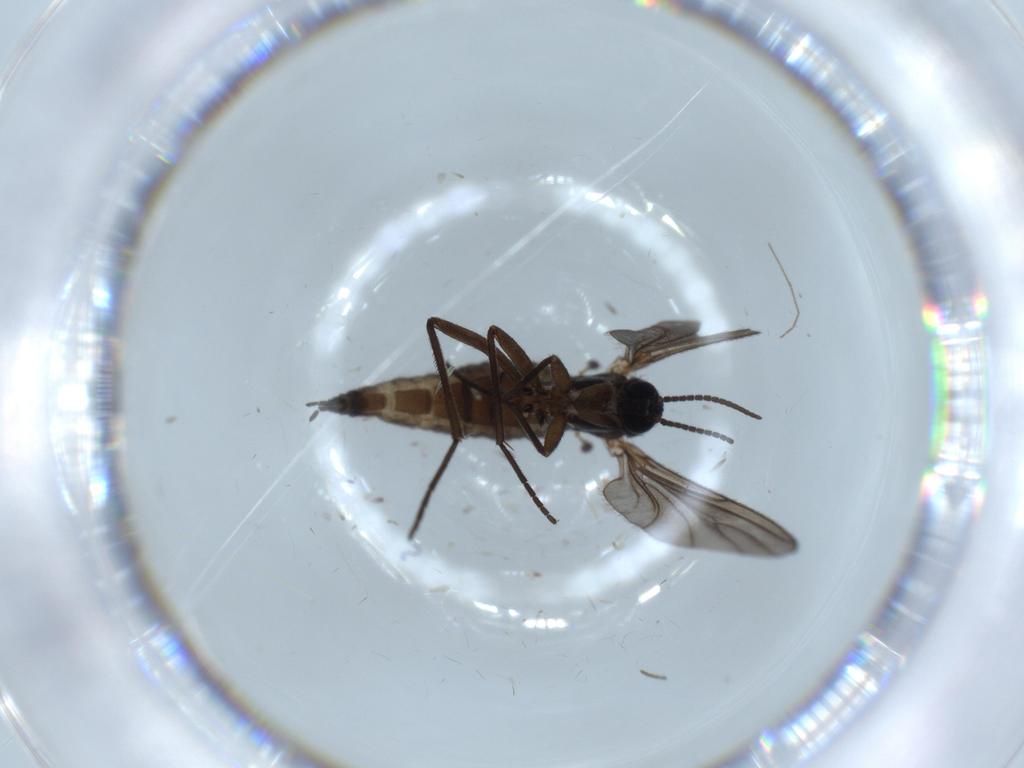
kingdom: Animalia
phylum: Arthropoda
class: Insecta
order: Diptera
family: Sciaridae
